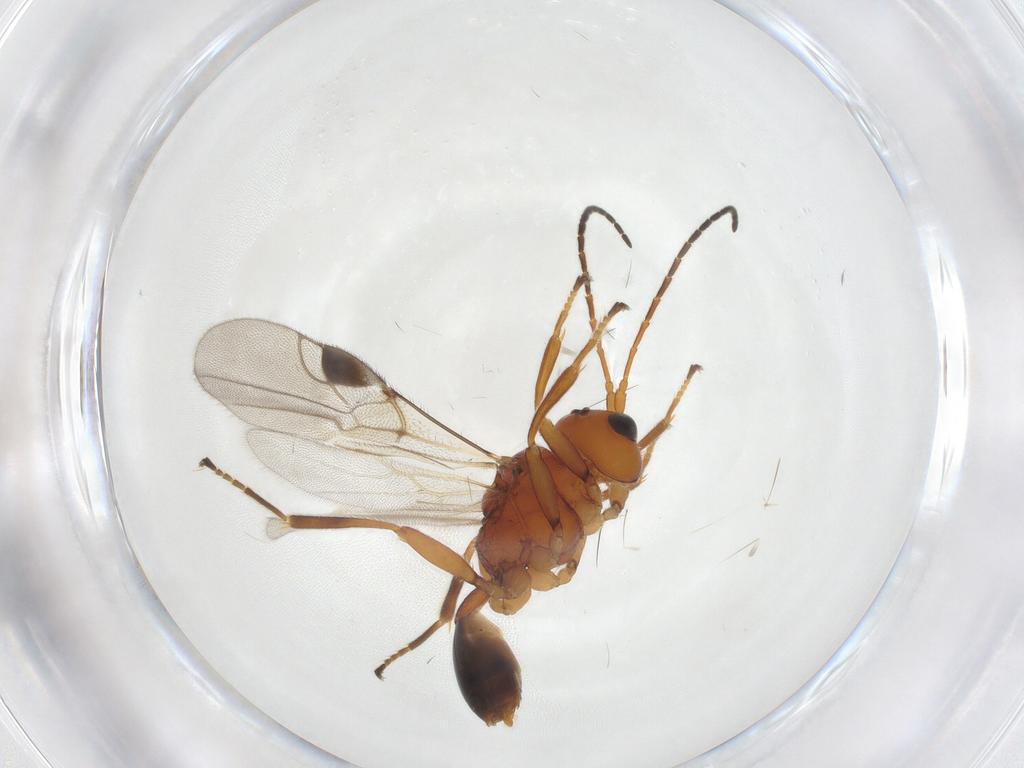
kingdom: Animalia
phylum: Arthropoda
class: Insecta
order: Hymenoptera
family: Braconidae
